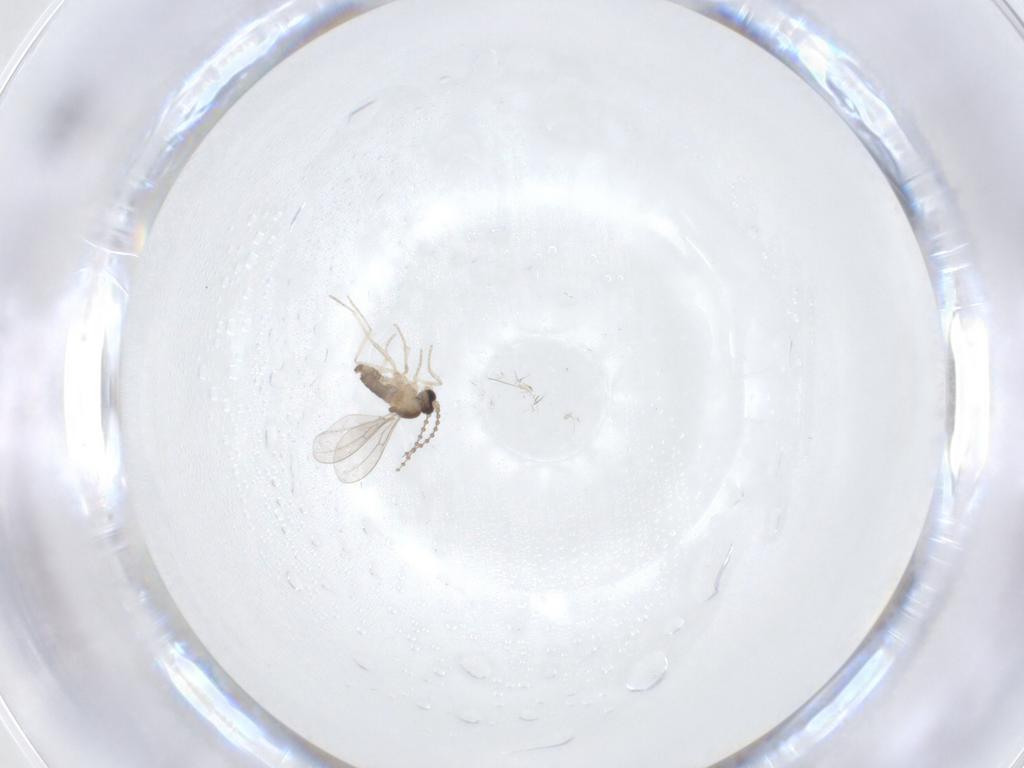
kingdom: Animalia
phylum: Arthropoda
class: Insecta
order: Diptera
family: Cecidomyiidae
